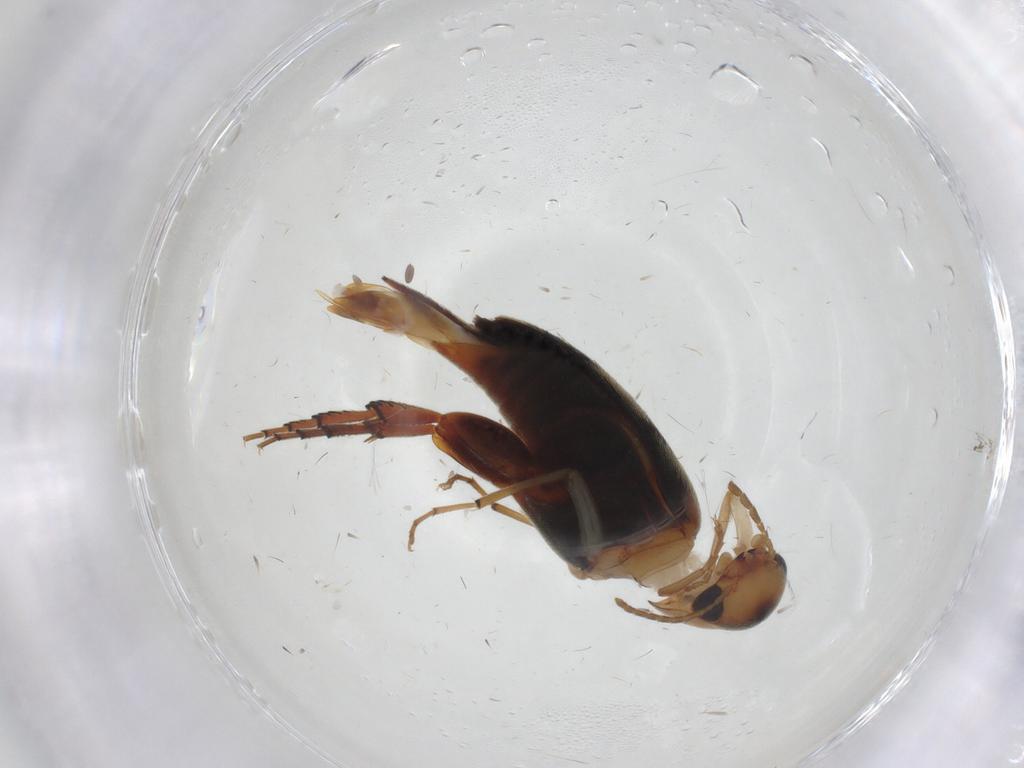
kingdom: Animalia
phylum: Arthropoda
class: Insecta
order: Coleoptera
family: Mordellidae
